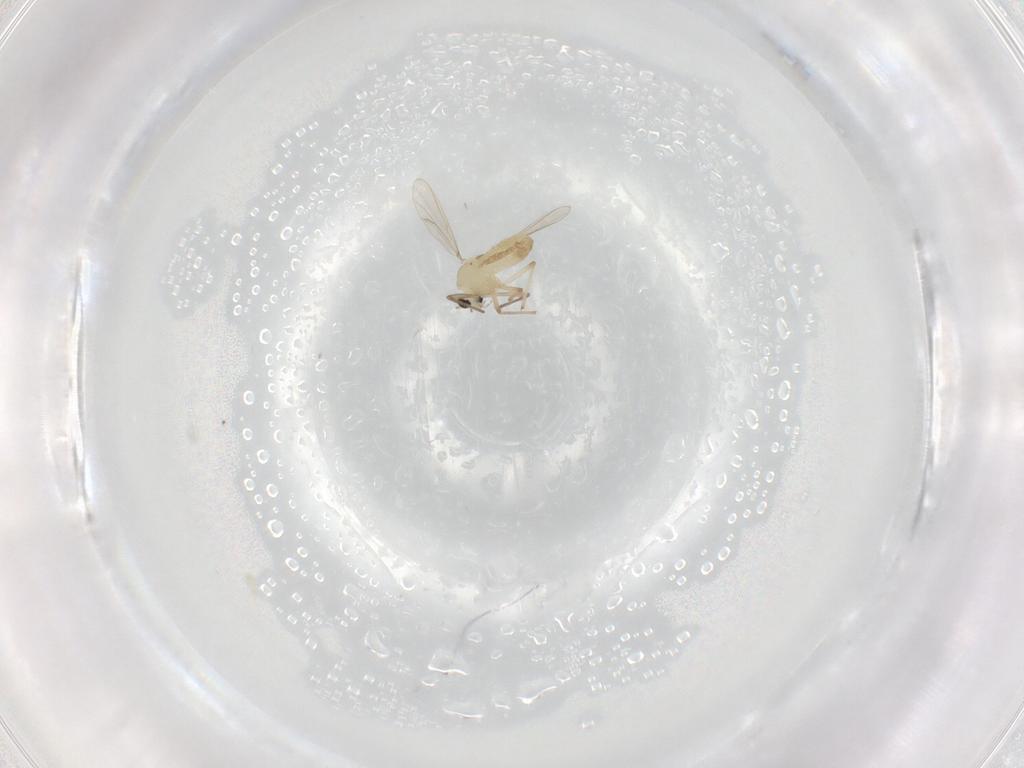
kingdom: Animalia
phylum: Arthropoda
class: Insecta
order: Diptera
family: Chironomidae
